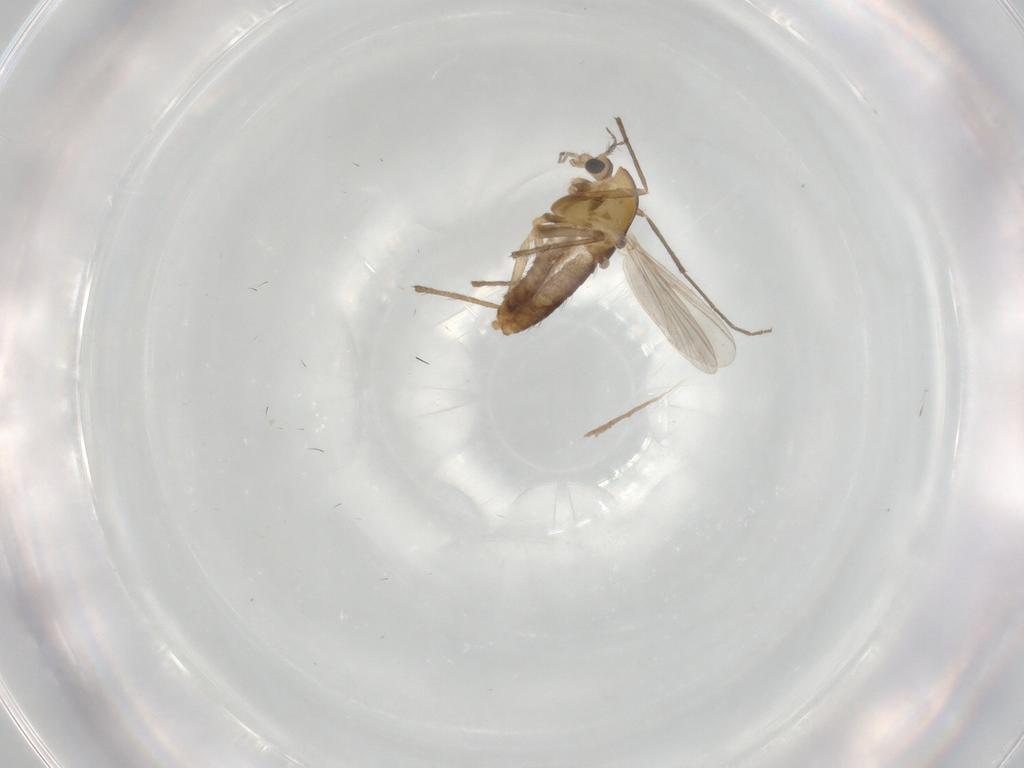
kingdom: Animalia
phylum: Arthropoda
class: Insecta
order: Diptera
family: Chironomidae
